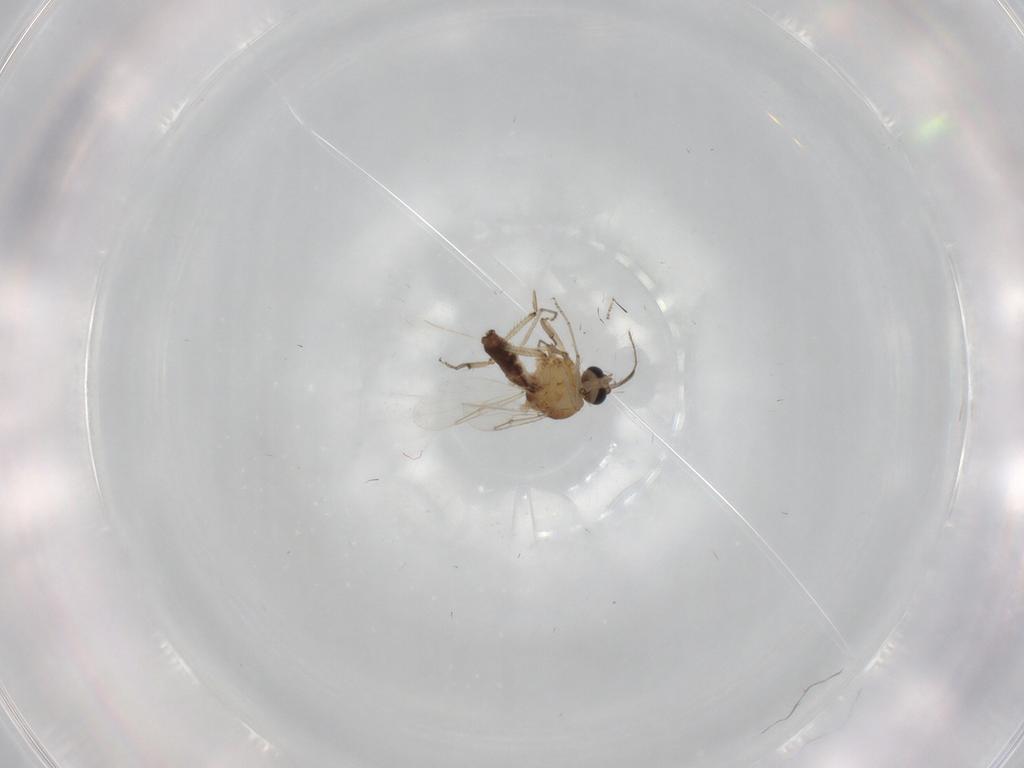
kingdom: Animalia
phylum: Arthropoda
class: Insecta
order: Diptera
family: Ceratopogonidae
